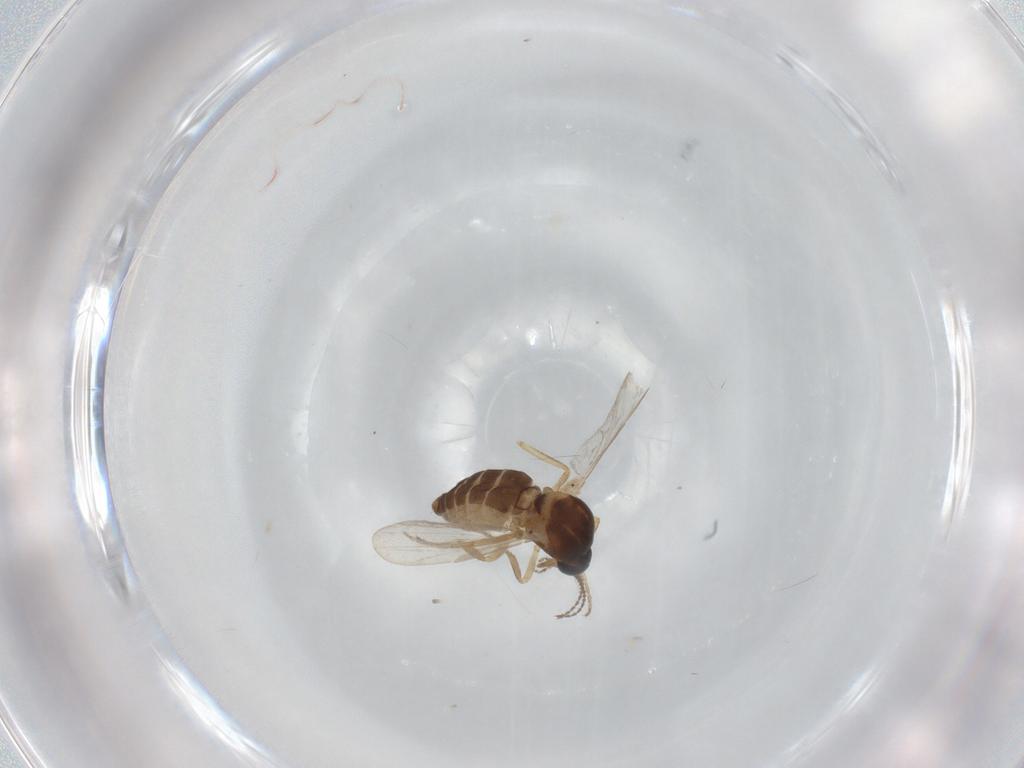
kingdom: Animalia
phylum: Arthropoda
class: Insecta
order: Diptera
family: Ceratopogonidae
